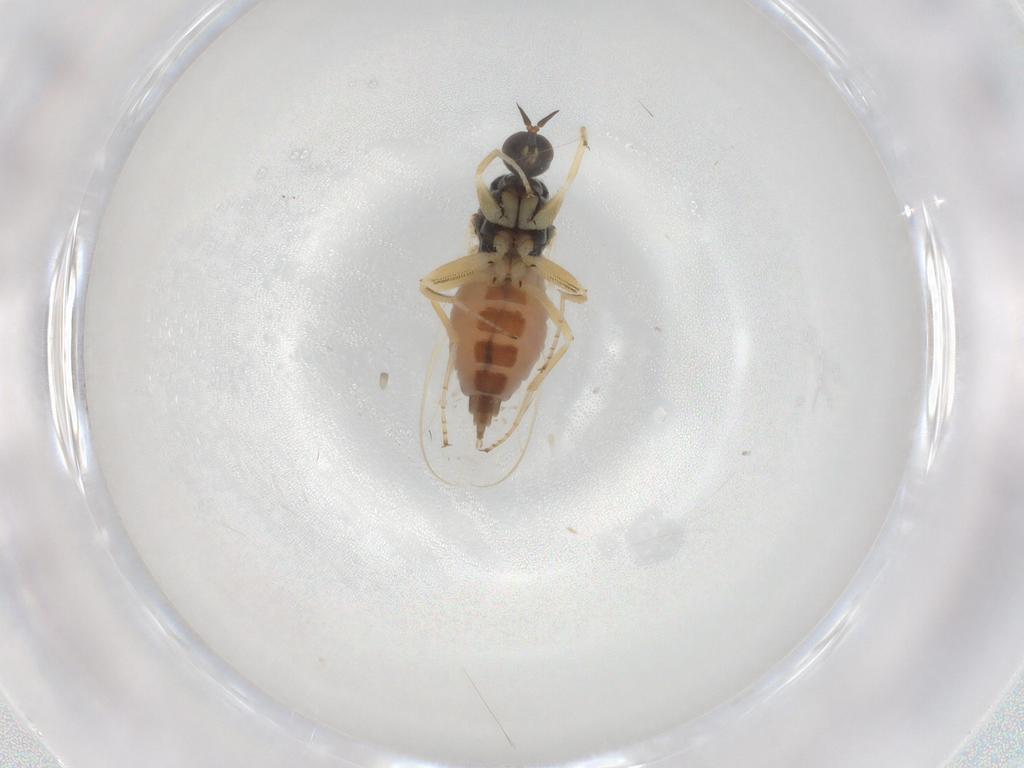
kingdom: Animalia
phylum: Arthropoda
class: Insecta
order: Diptera
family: Hybotidae
